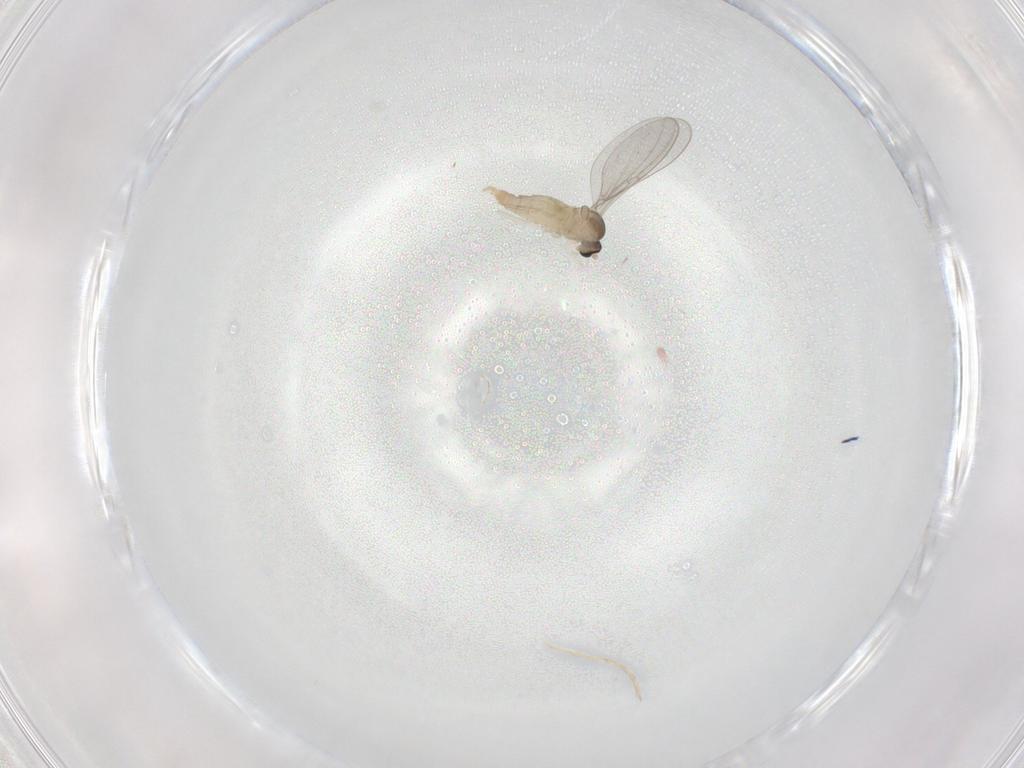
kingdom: Animalia
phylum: Arthropoda
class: Insecta
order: Diptera
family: Cecidomyiidae
